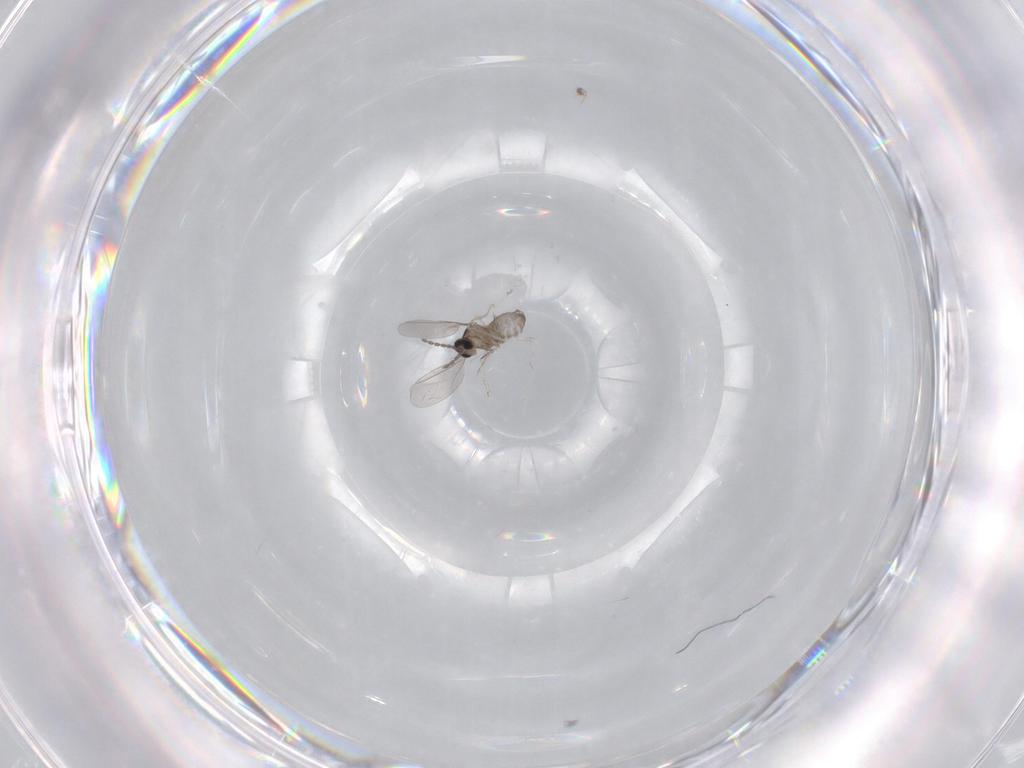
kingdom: Animalia
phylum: Arthropoda
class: Insecta
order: Diptera
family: Cecidomyiidae
